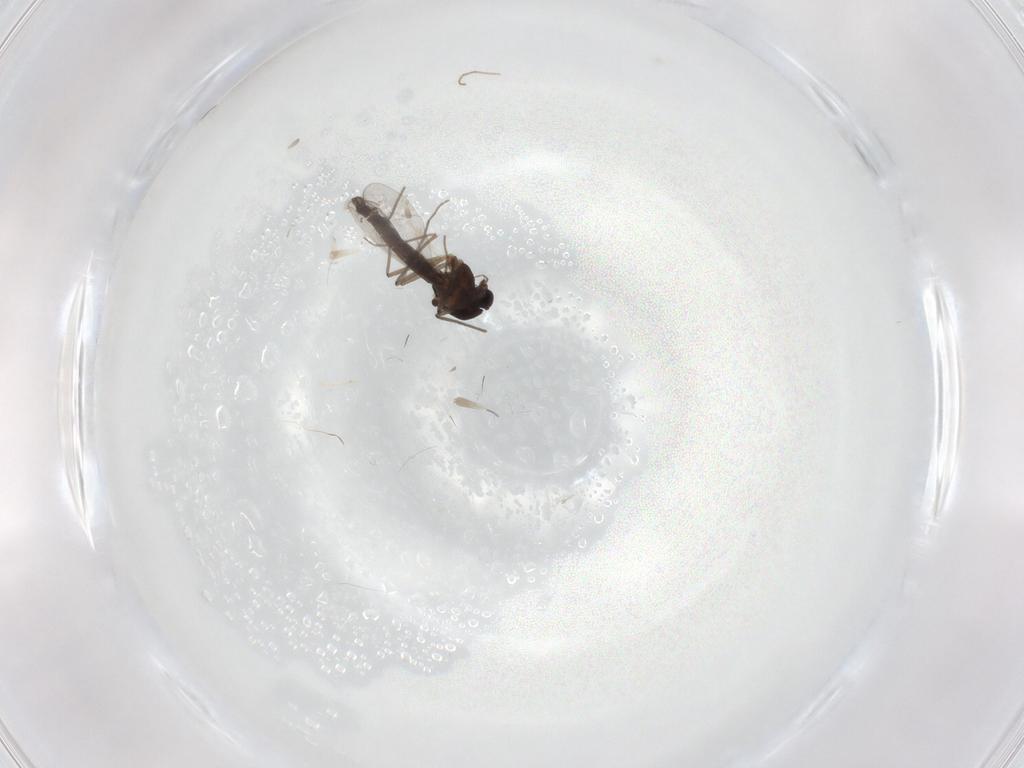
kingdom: Animalia
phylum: Arthropoda
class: Insecta
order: Diptera
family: Chironomidae
